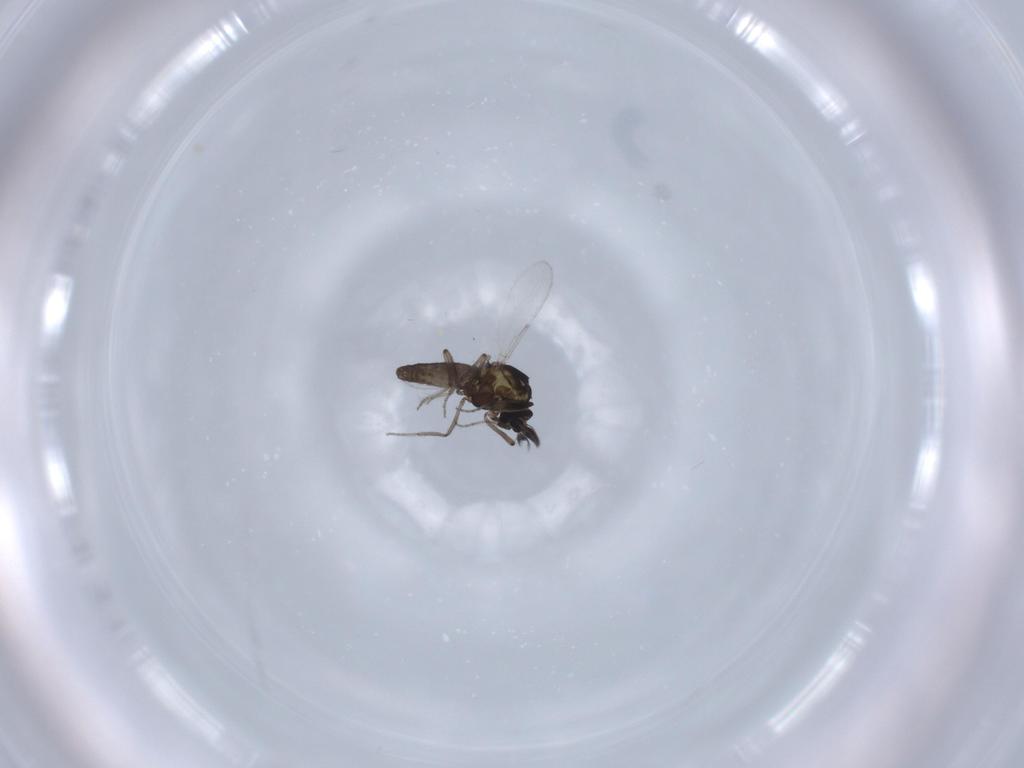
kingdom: Animalia
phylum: Arthropoda
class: Insecta
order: Diptera
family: Ceratopogonidae
